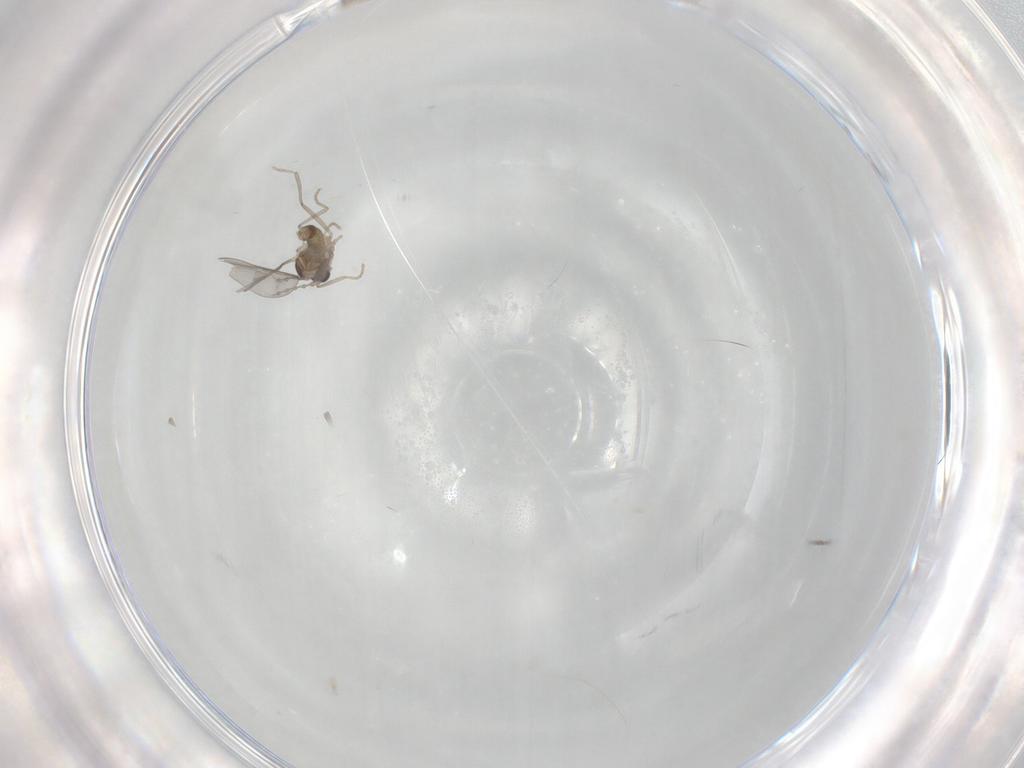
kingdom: Animalia
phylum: Arthropoda
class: Insecta
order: Diptera
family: Cecidomyiidae
